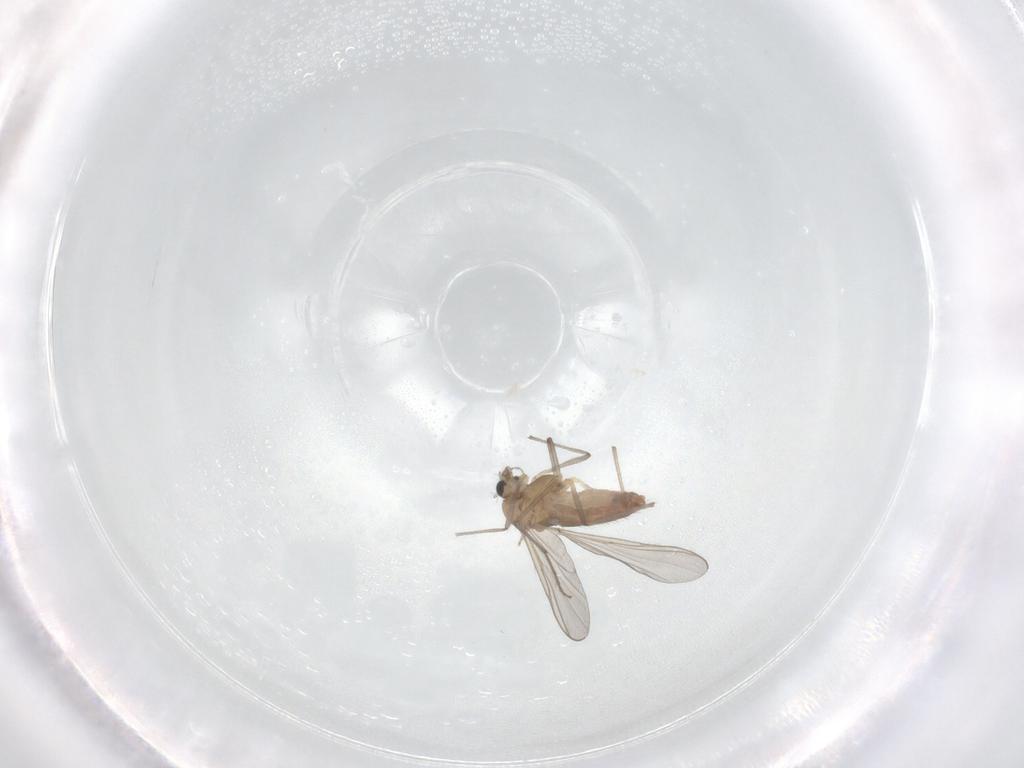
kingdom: Animalia
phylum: Arthropoda
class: Insecta
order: Diptera
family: Chironomidae
